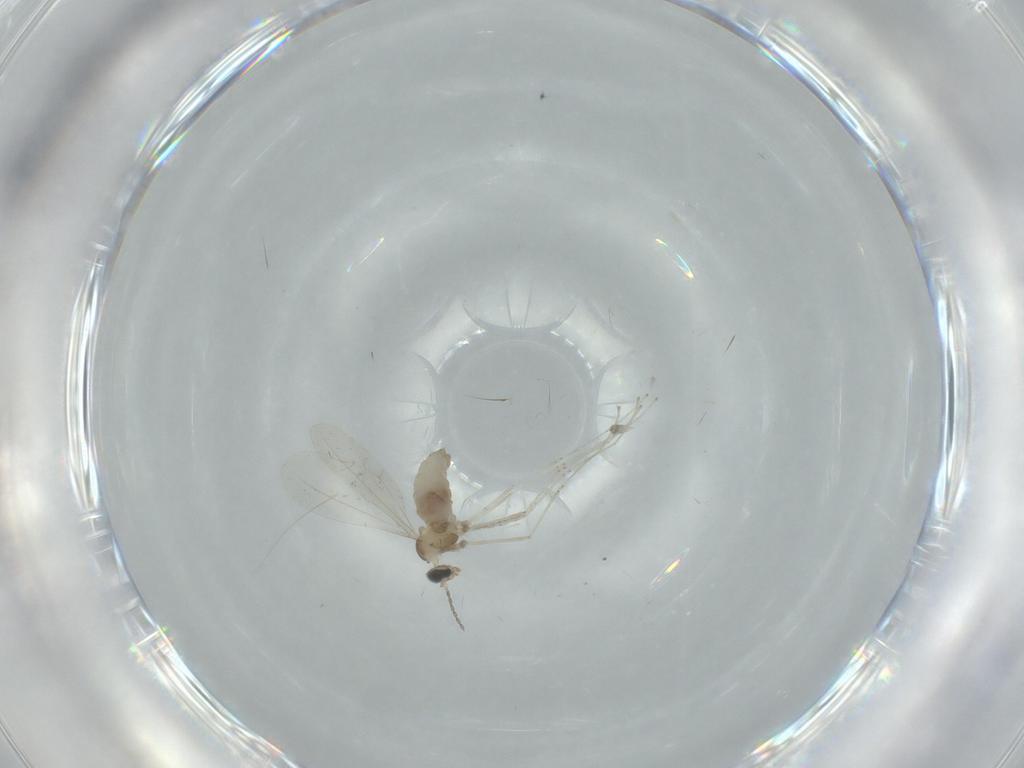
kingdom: Animalia
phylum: Arthropoda
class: Insecta
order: Diptera
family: Cecidomyiidae
